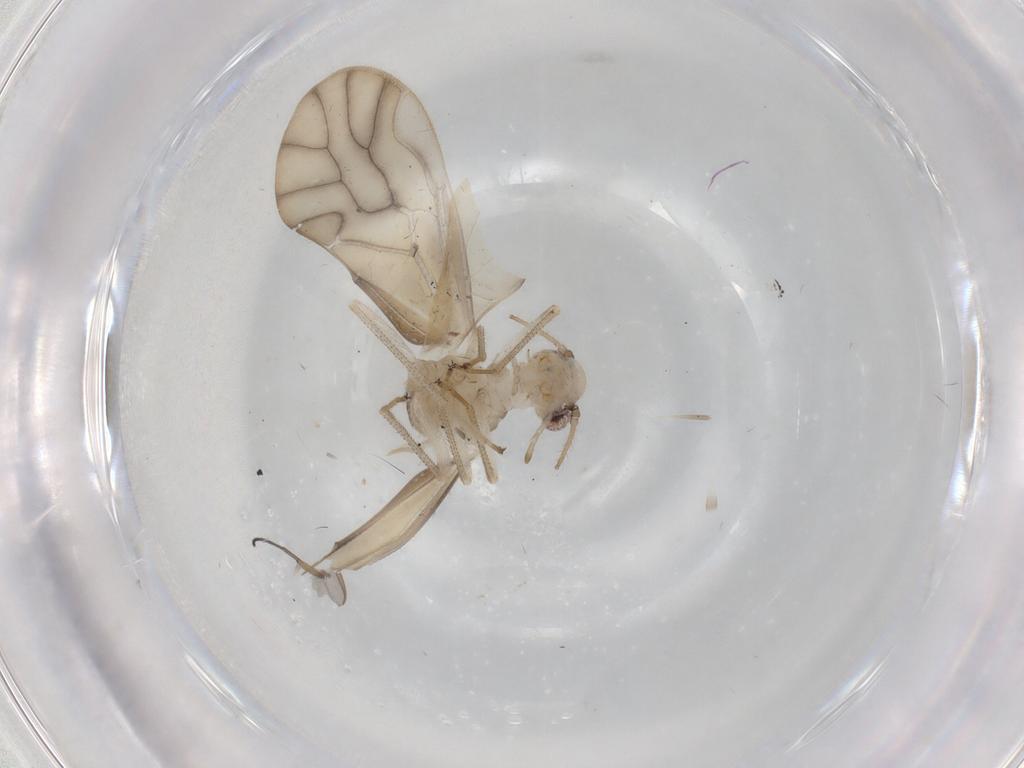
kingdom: Animalia
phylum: Arthropoda
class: Insecta
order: Psocodea
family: Caeciliusidae
